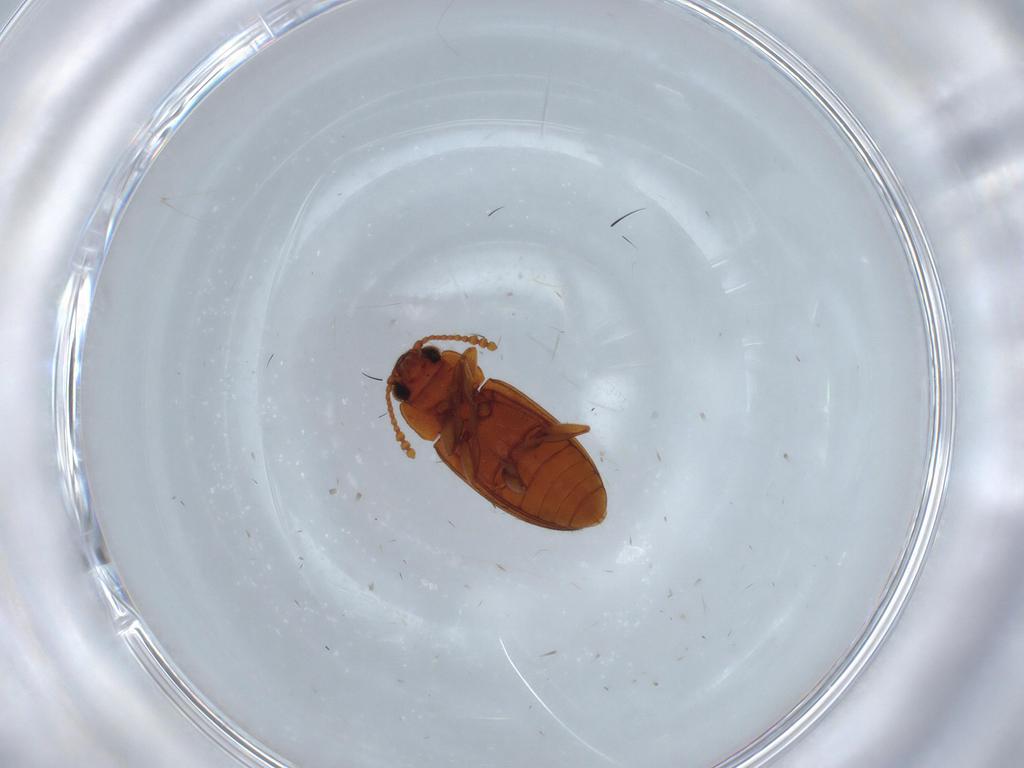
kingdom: Animalia
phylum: Arthropoda
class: Insecta
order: Coleoptera
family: Erotylidae
